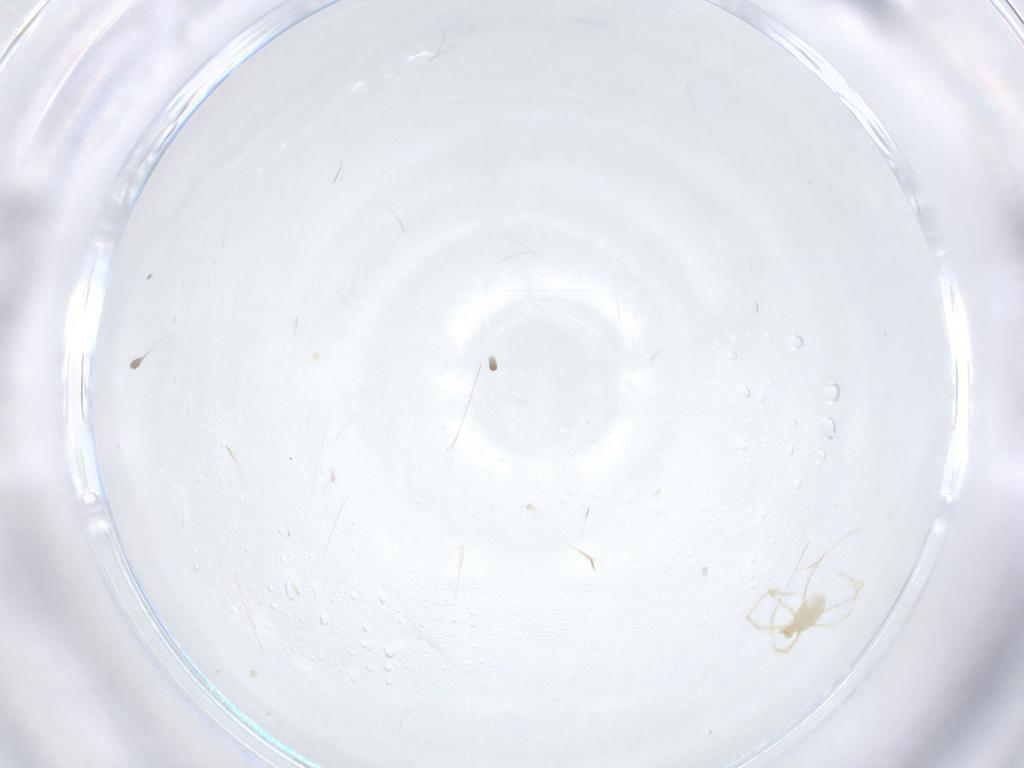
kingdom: Animalia
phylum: Arthropoda
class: Arachnida
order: Trombidiformes
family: Erythraeidae
